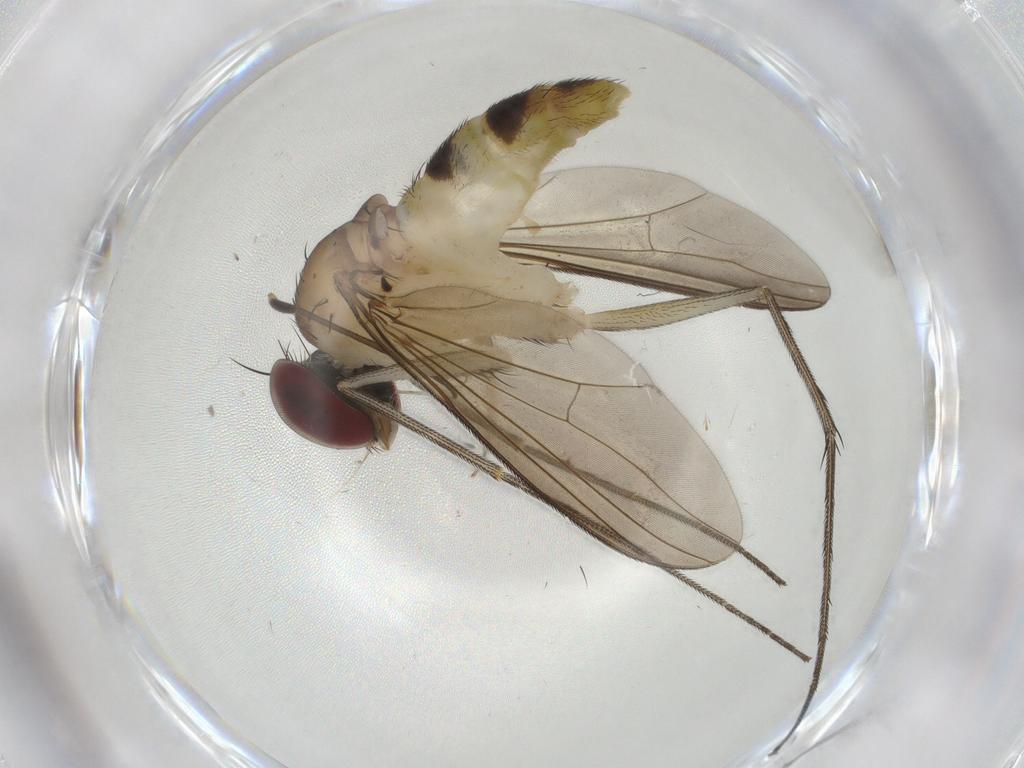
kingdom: Animalia
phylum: Arthropoda
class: Insecta
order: Diptera
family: Dolichopodidae
